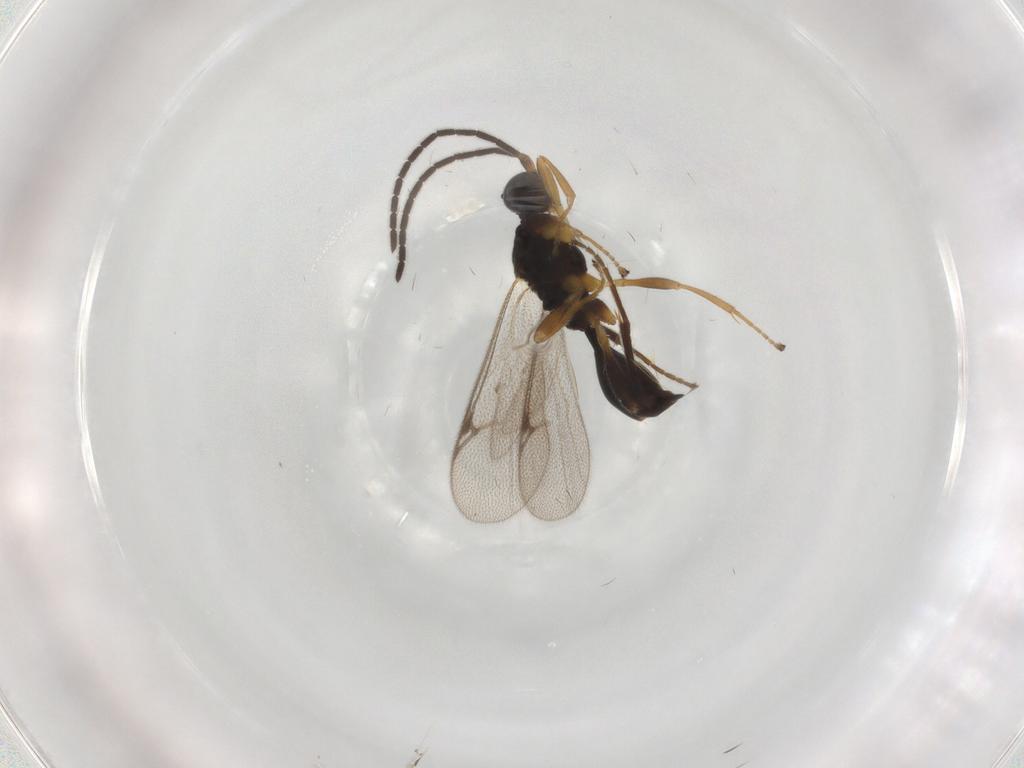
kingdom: Animalia
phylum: Arthropoda
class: Insecta
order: Hymenoptera
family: Proctotrupidae
